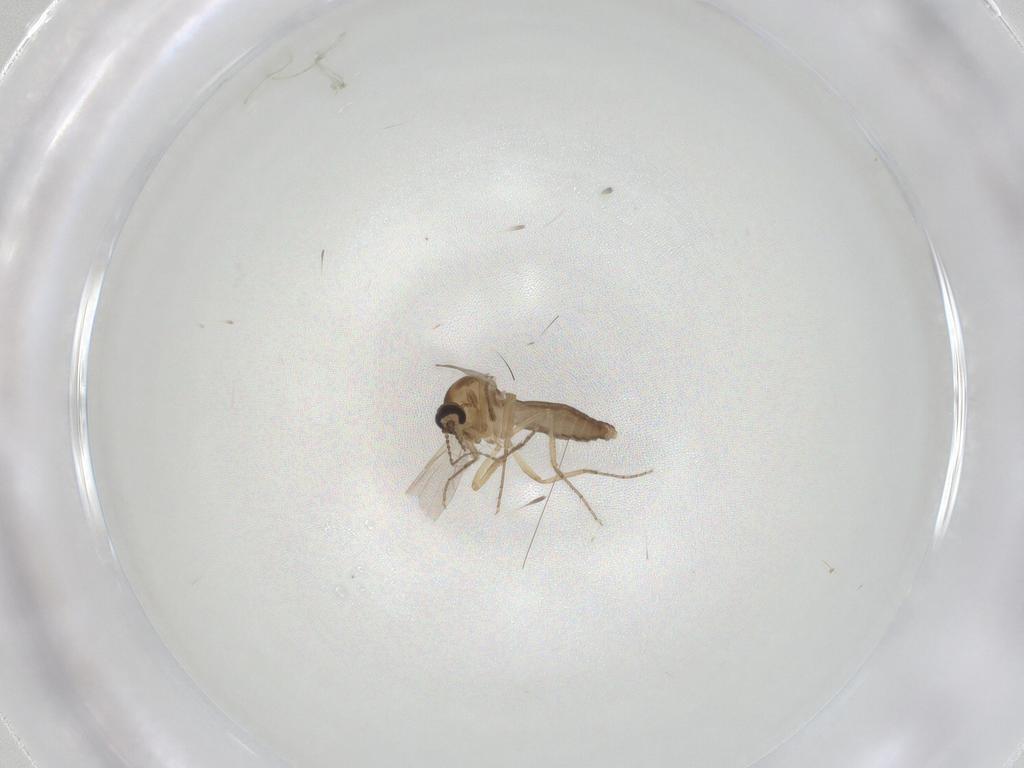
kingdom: Animalia
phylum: Arthropoda
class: Insecta
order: Diptera
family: Ceratopogonidae
